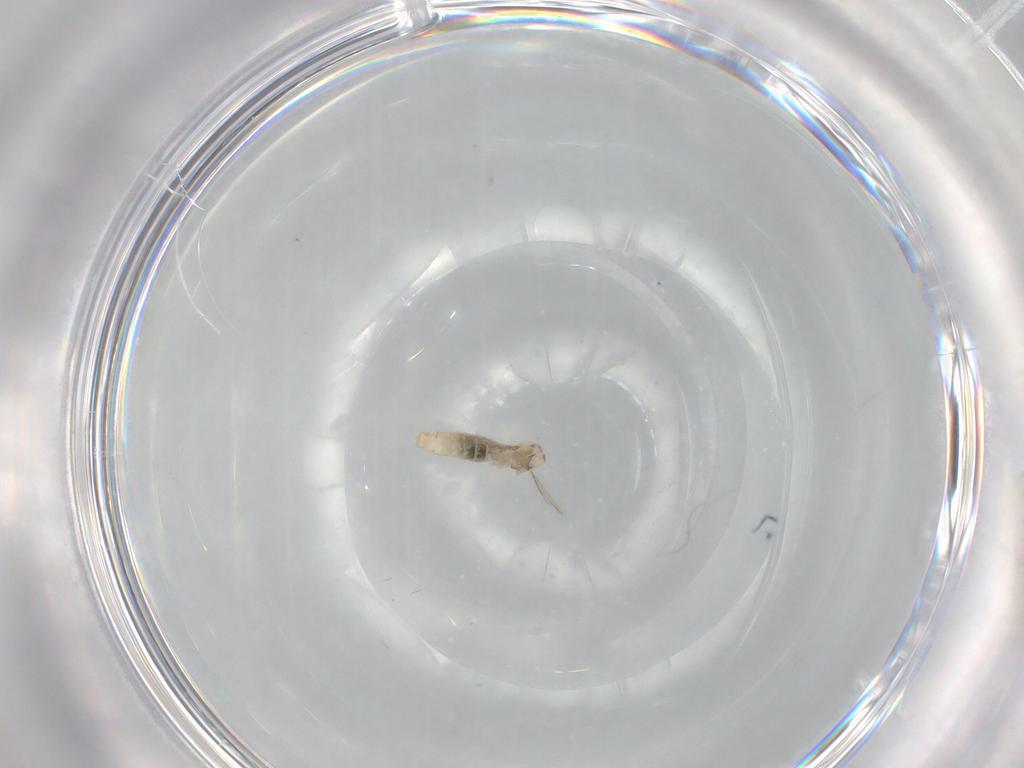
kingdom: Animalia
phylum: Arthropoda
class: Insecta
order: Diptera
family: Cecidomyiidae
